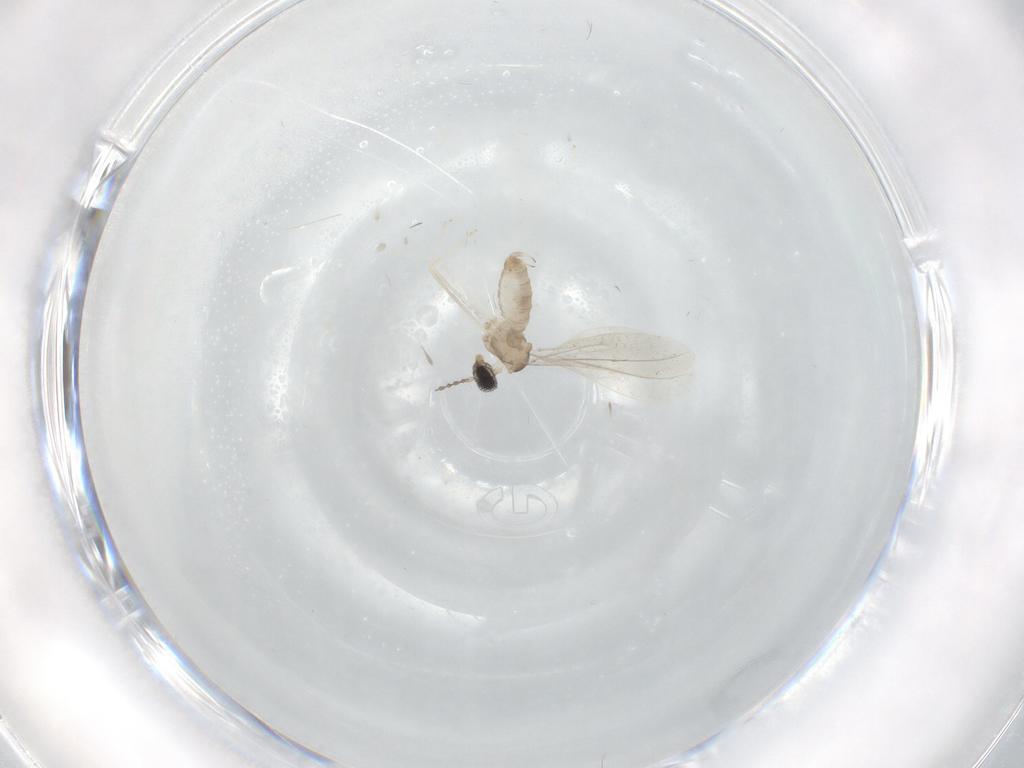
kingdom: Animalia
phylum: Arthropoda
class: Insecta
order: Diptera
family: Cecidomyiidae
